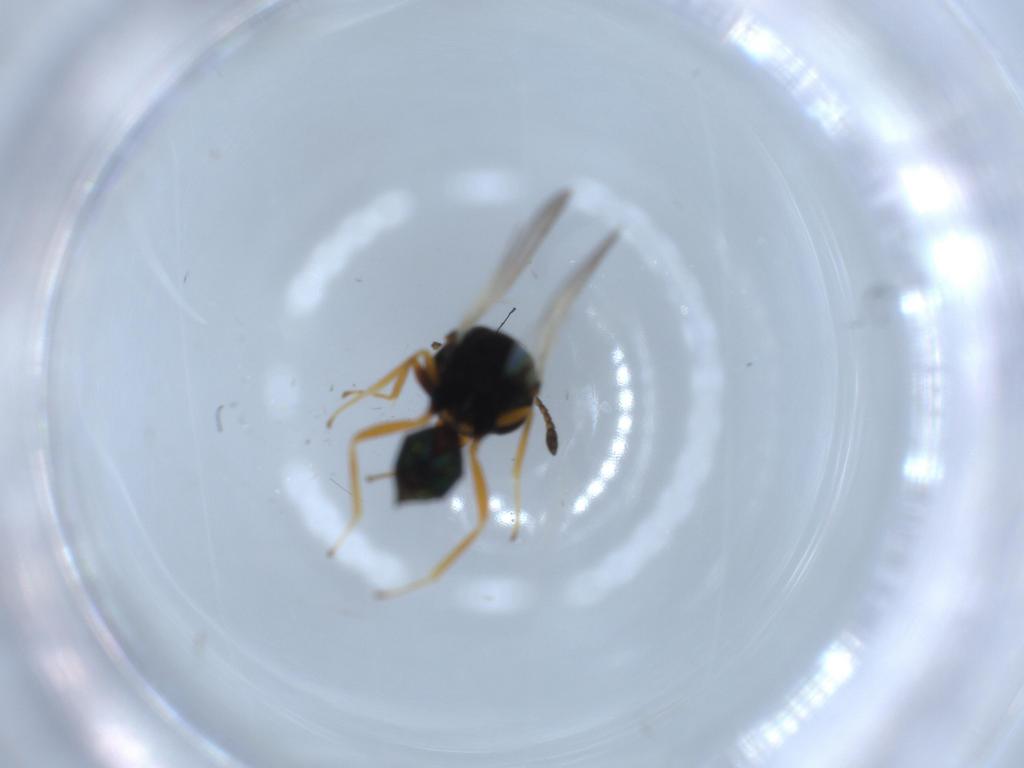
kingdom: Animalia
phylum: Arthropoda
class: Insecta
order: Hymenoptera
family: Pteromalidae
